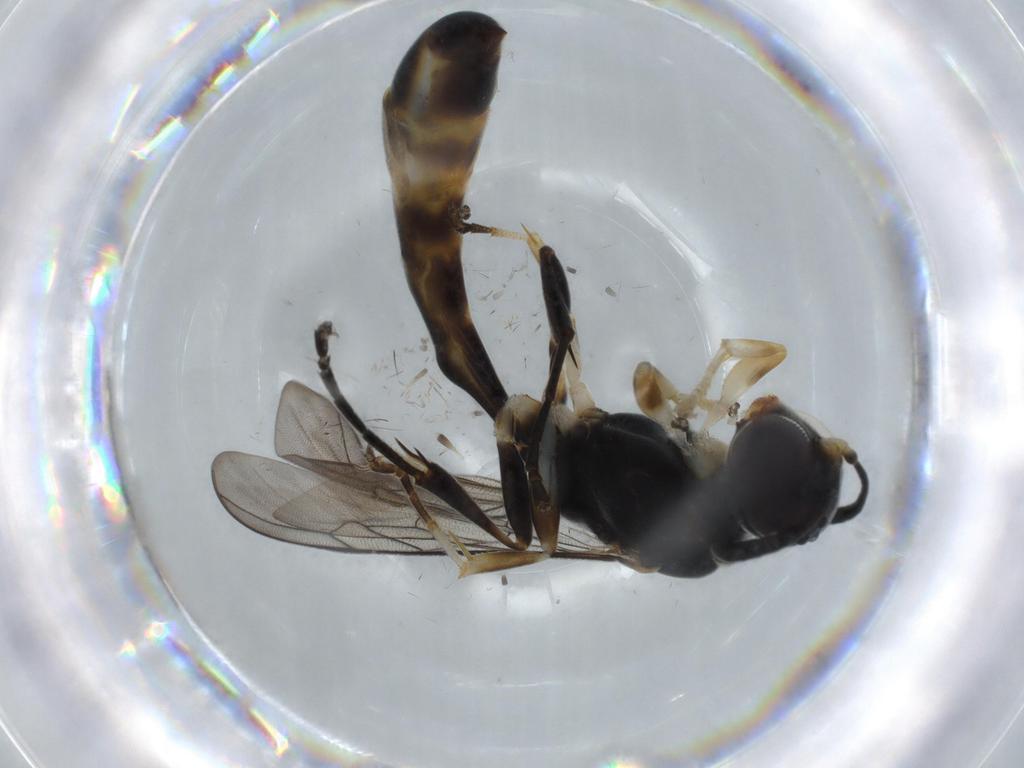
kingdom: Animalia
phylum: Arthropoda
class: Insecta
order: Hymenoptera
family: Crabronidae
